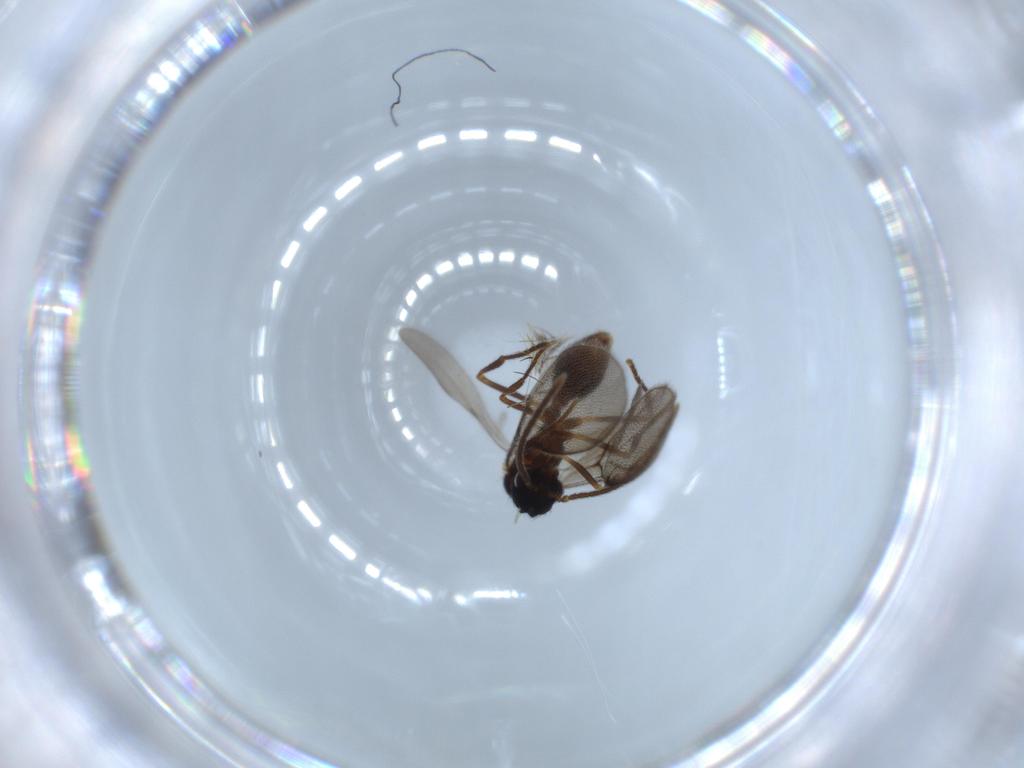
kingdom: Animalia
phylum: Arthropoda
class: Insecta
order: Hymenoptera
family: Formicidae
